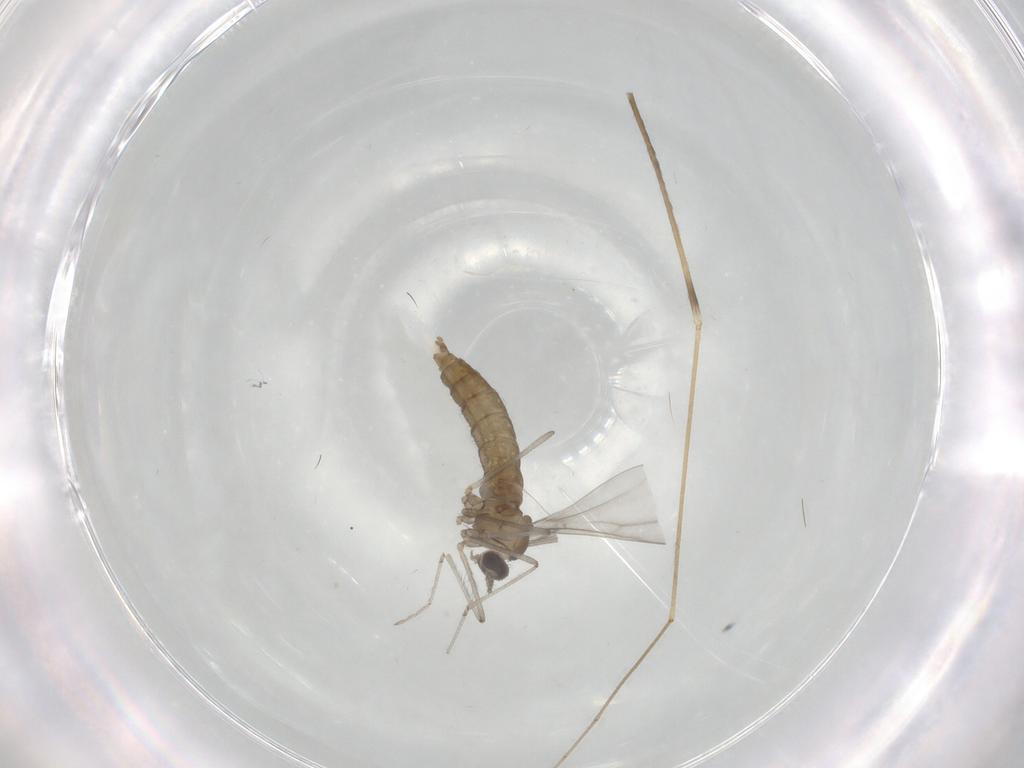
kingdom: Animalia
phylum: Arthropoda
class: Insecta
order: Diptera
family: Limoniidae
